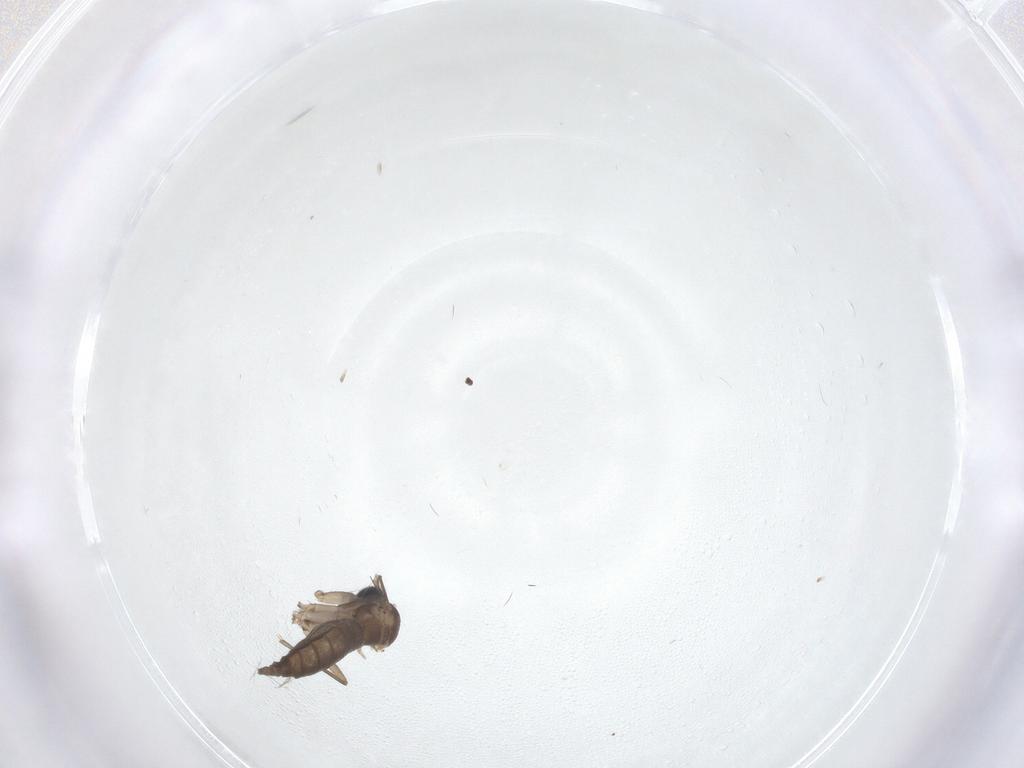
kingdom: Animalia
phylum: Arthropoda
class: Insecta
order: Diptera
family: Sciaridae
